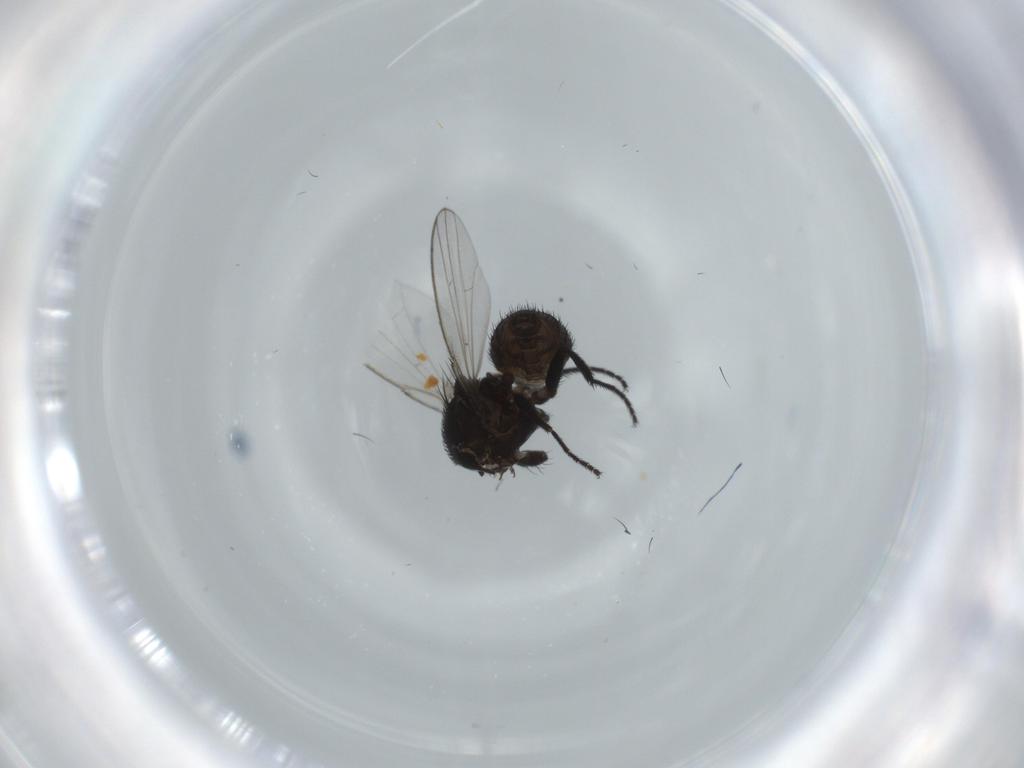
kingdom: Animalia
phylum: Arthropoda
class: Insecta
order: Diptera
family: Milichiidae
